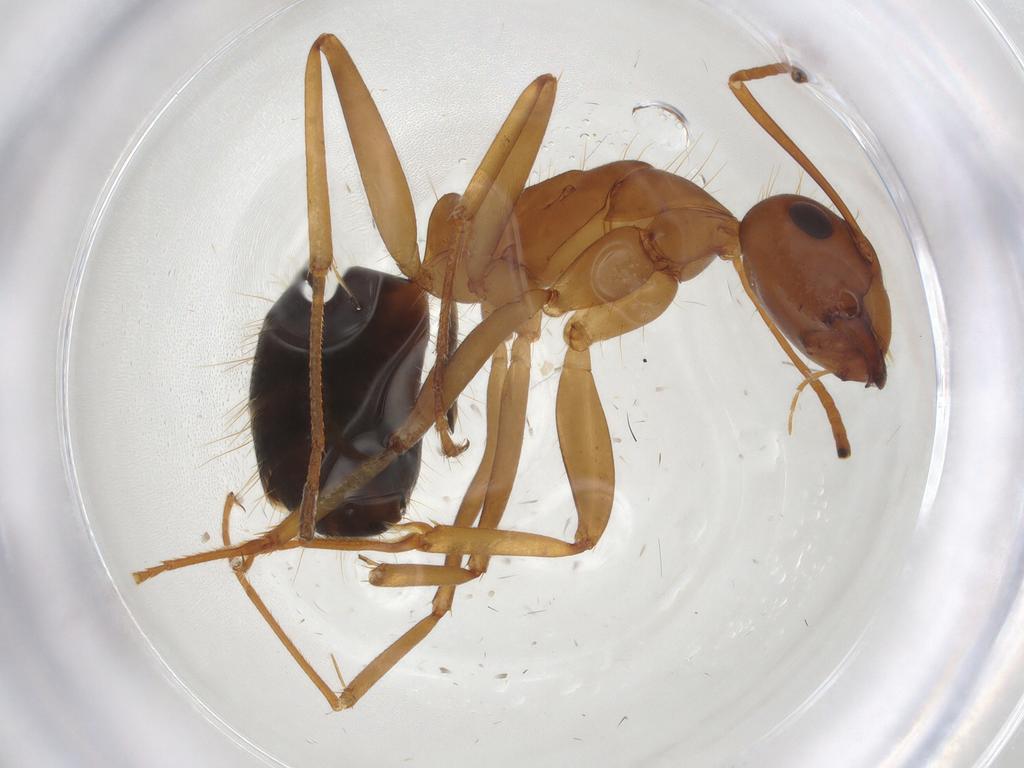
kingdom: Animalia
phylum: Arthropoda
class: Insecta
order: Hymenoptera
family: Formicidae
